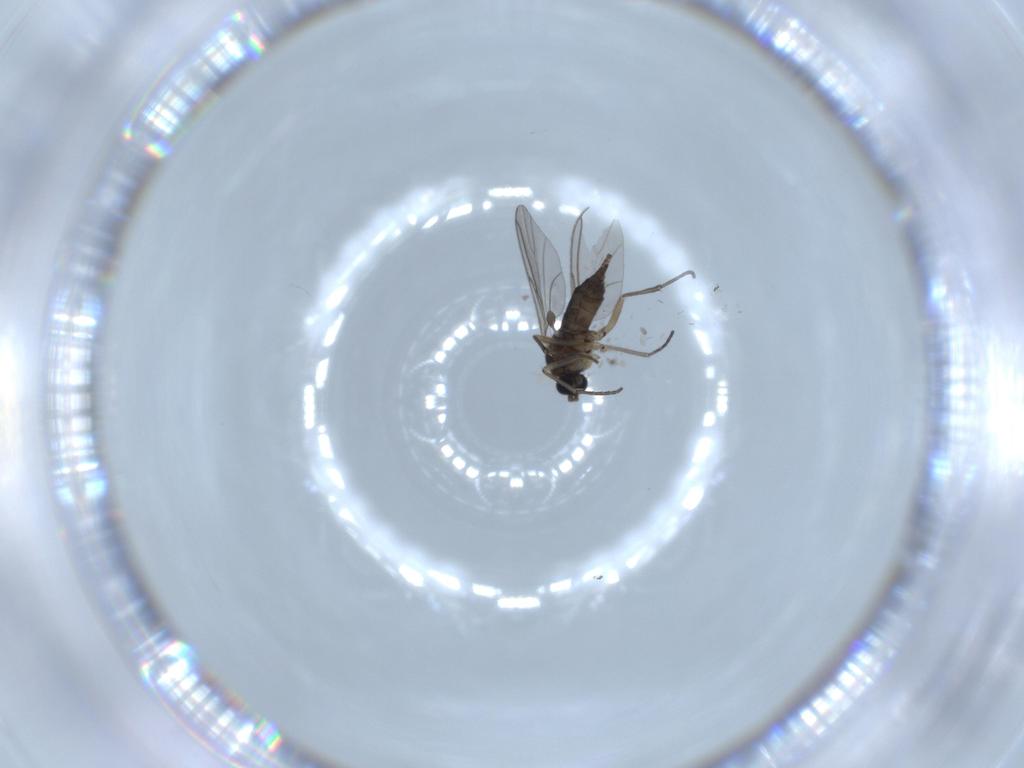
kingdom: Animalia
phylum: Arthropoda
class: Insecta
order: Diptera
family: Sciaridae
